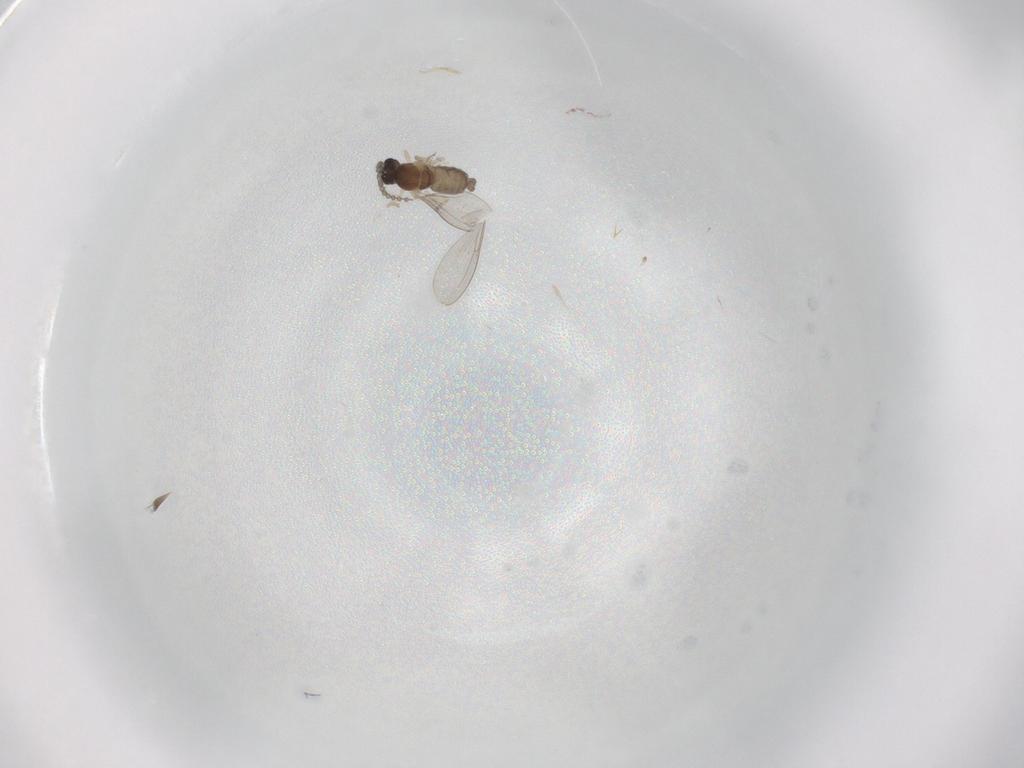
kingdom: Animalia
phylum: Arthropoda
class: Insecta
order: Diptera
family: Cecidomyiidae
